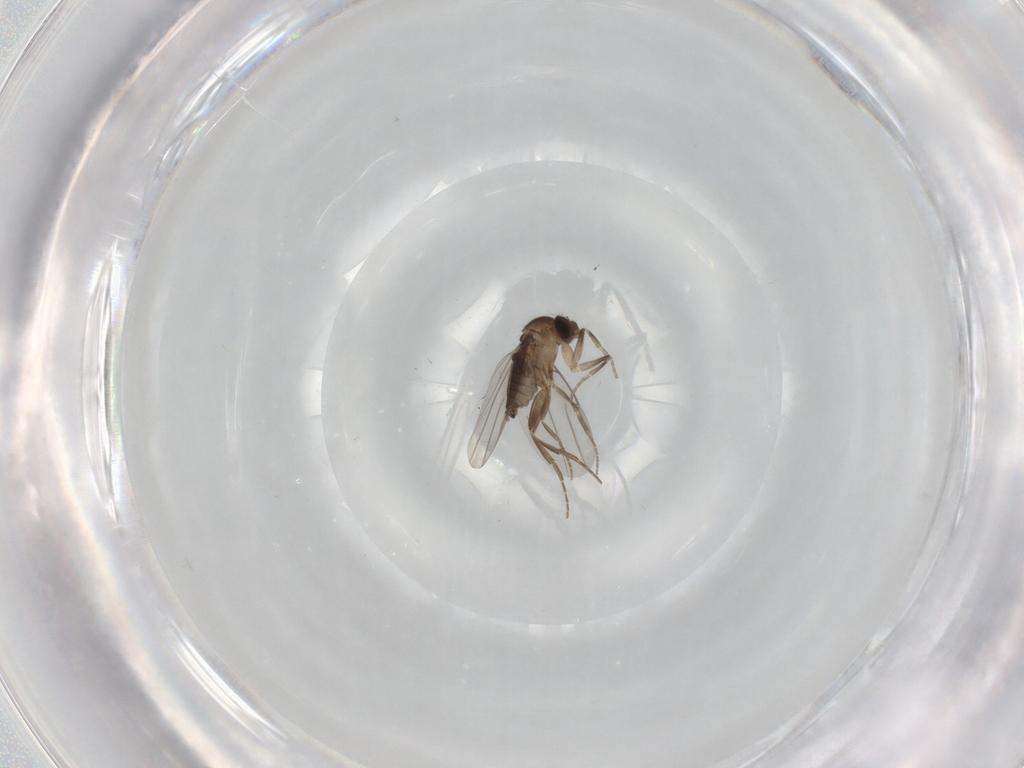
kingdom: Animalia
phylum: Arthropoda
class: Insecta
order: Diptera
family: Phoridae
